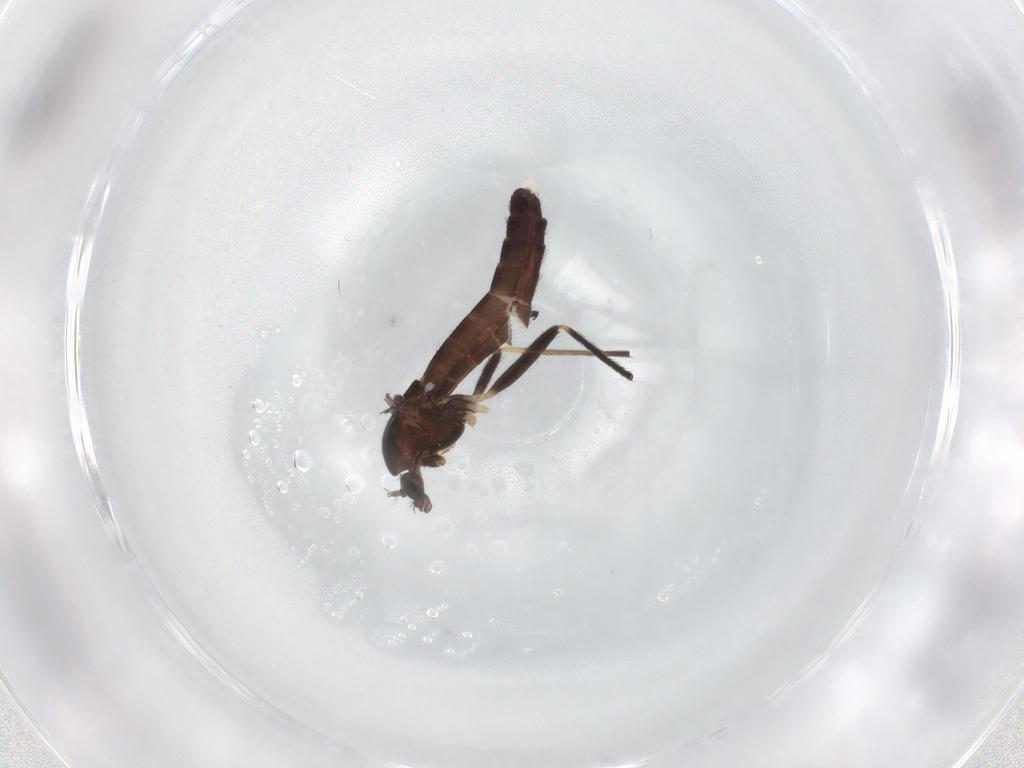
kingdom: Animalia
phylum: Arthropoda
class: Insecta
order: Diptera
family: Chironomidae
